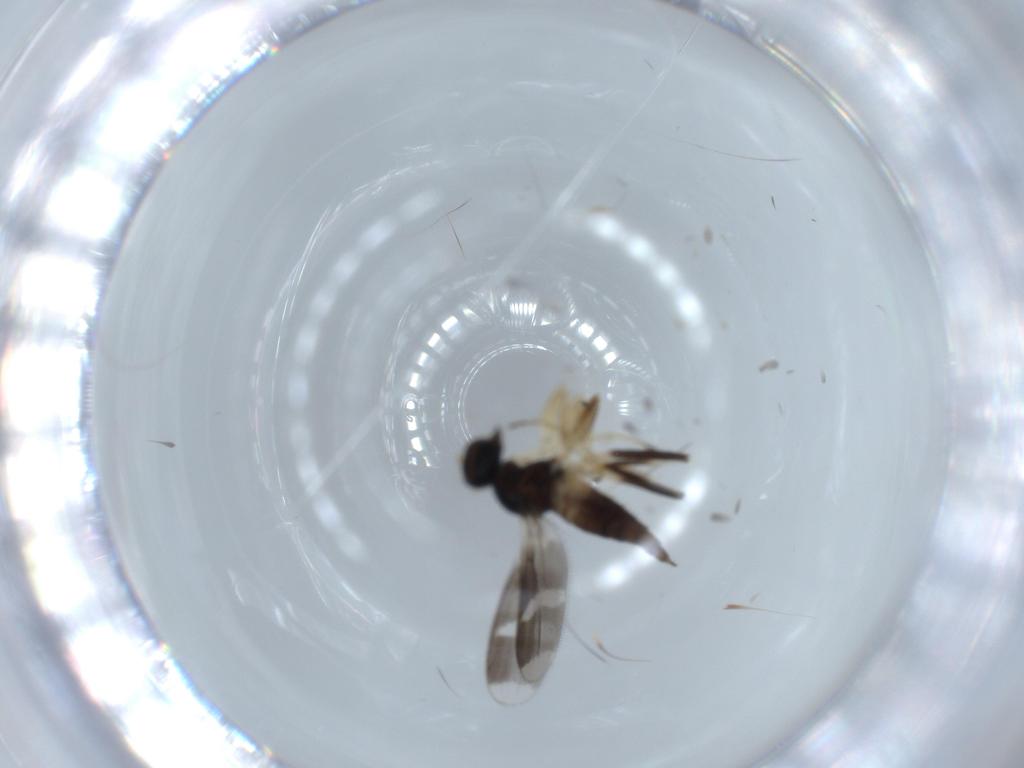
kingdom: Animalia
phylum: Arthropoda
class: Insecta
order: Diptera
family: Hybotidae
